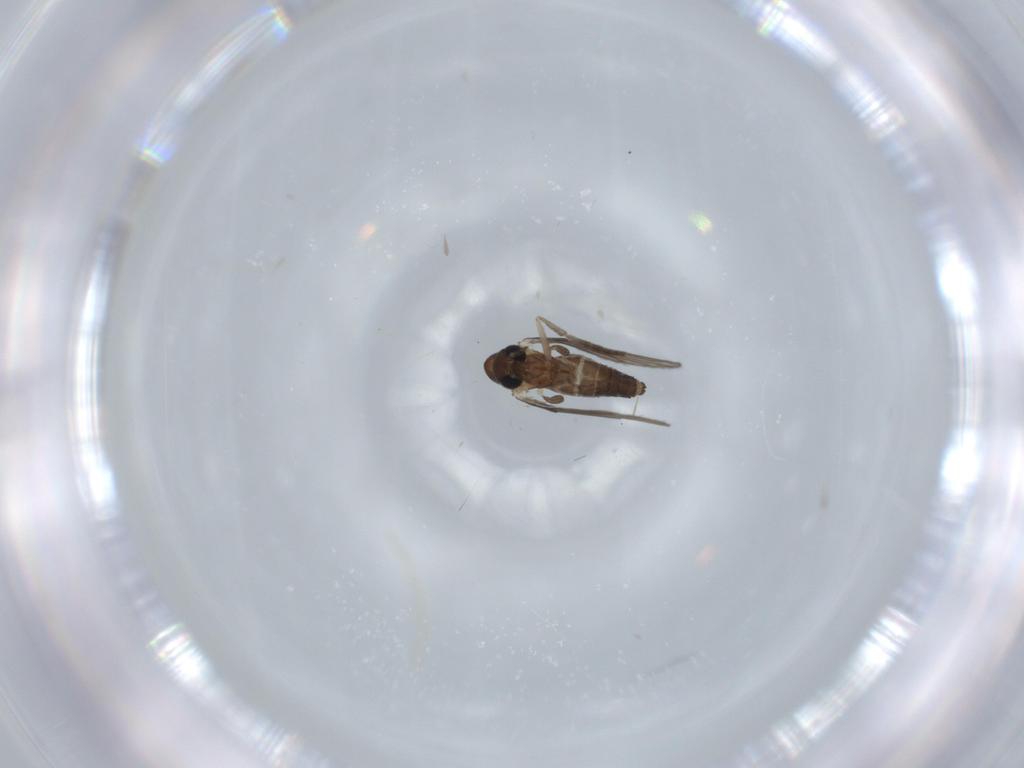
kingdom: Animalia
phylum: Arthropoda
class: Insecta
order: Diptera
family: Psychodidae
